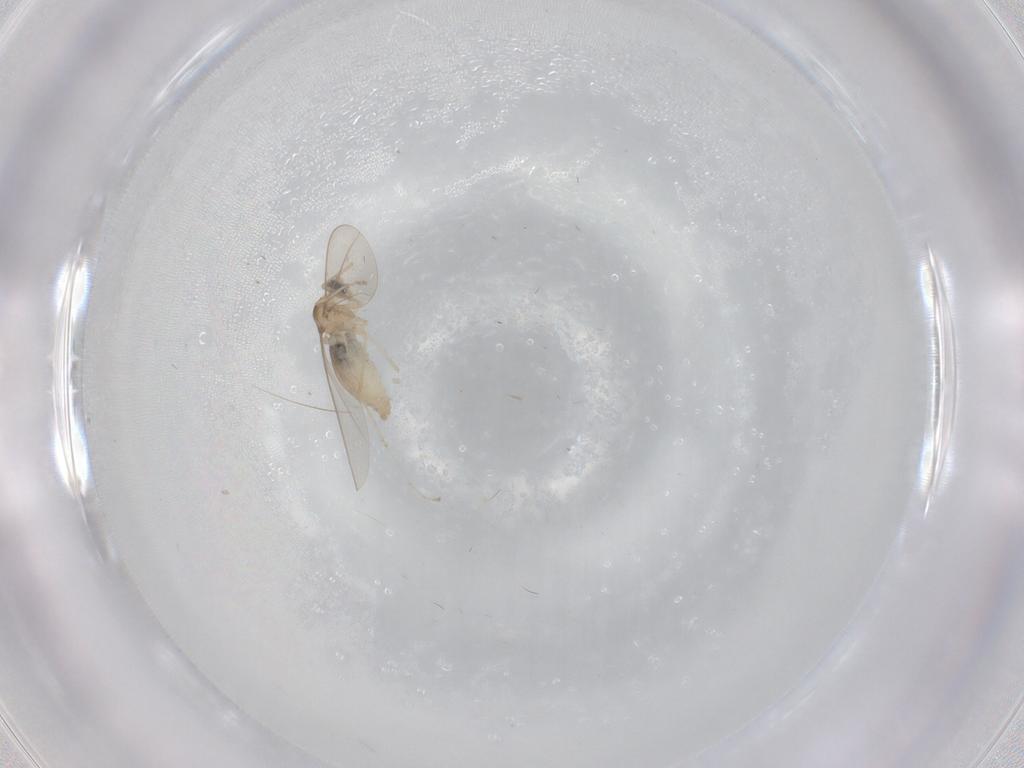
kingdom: Animalia
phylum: Arthropoda
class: Insecta
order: Diptera
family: Cecidomyiidae
